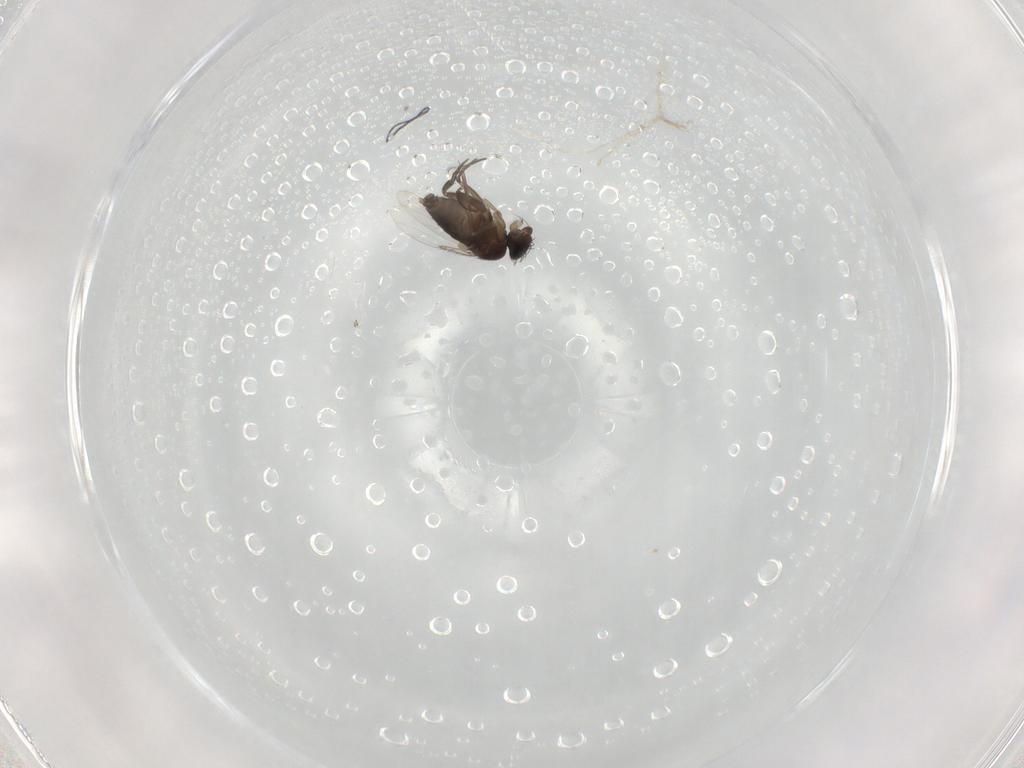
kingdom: Animalia
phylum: Arthropoda
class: Insecta
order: Diptera
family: Phoridae
